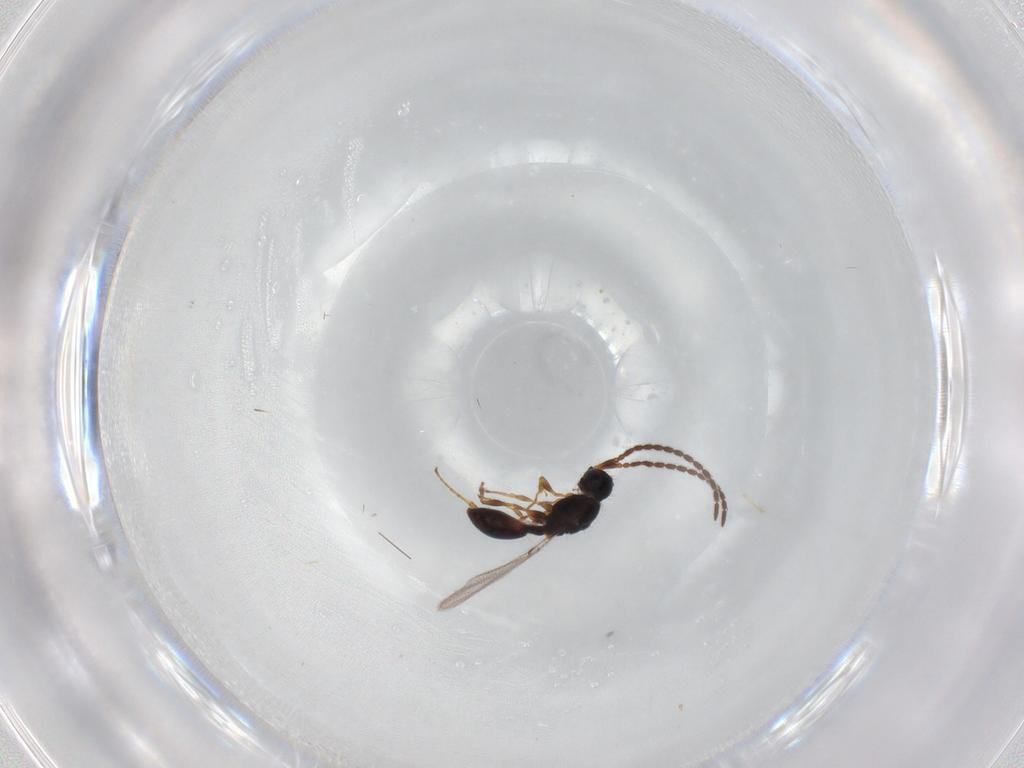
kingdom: Animalia
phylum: Arthropoda
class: Insecta
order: Hymenoptera
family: Diapriidae
